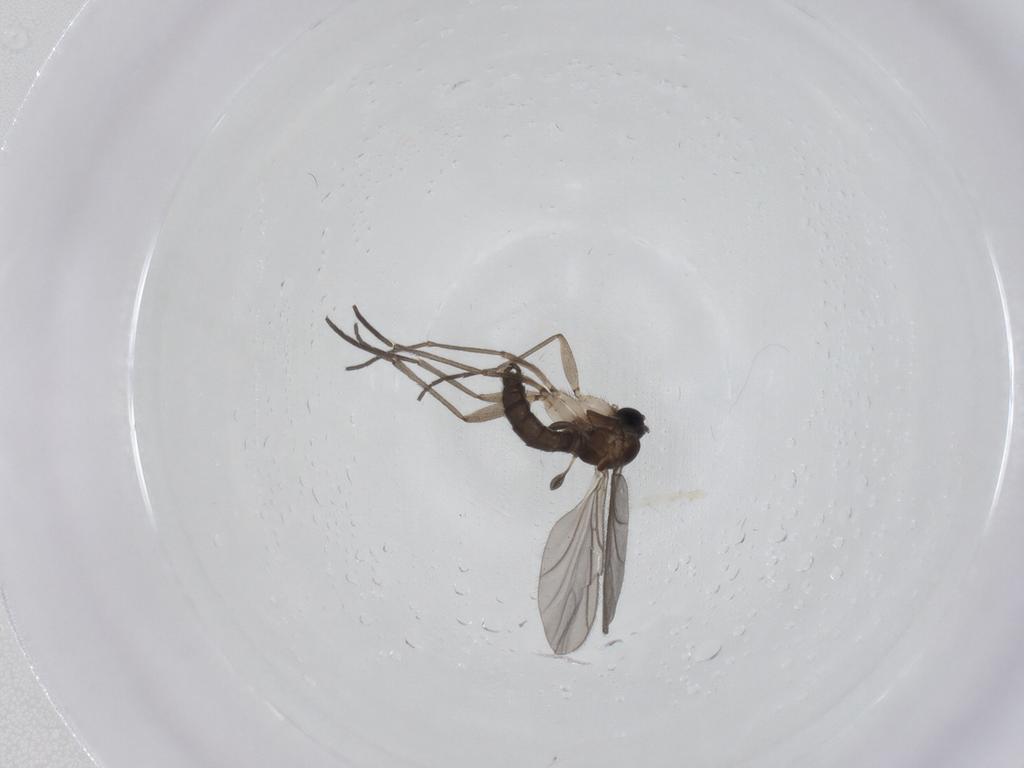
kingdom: Animalia
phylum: Arthropoda
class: Insecta
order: Diptera
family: Sciaridae
